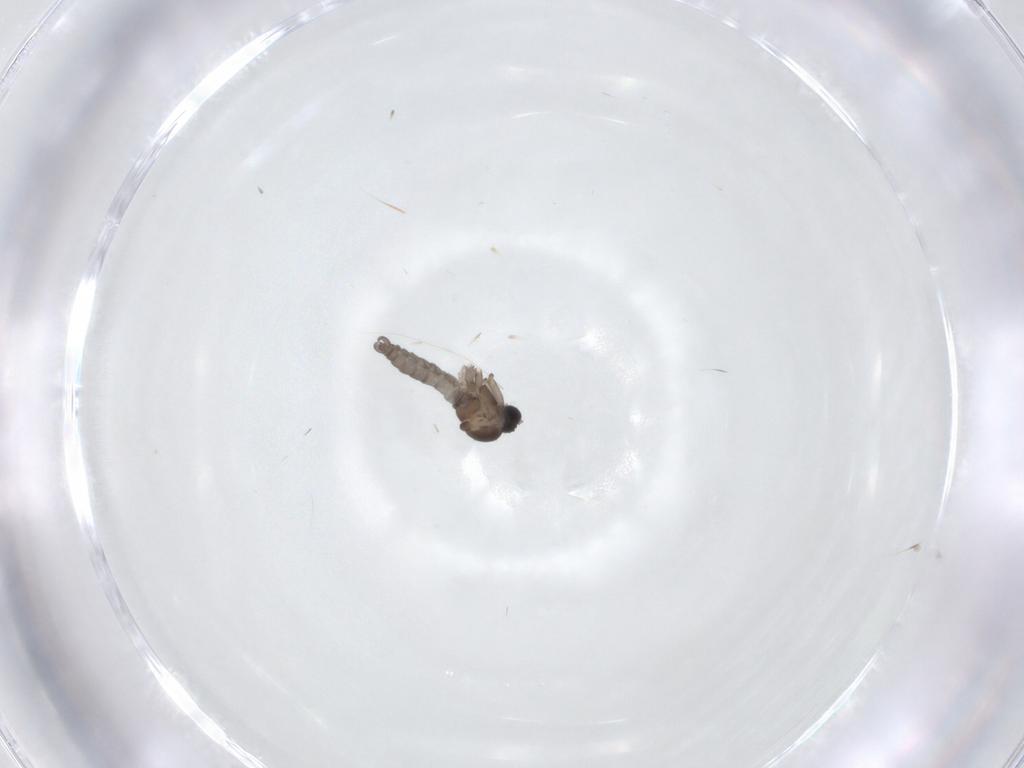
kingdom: Animalia
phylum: Arthropoda
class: Insecta
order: Diptera
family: Sciaridae
